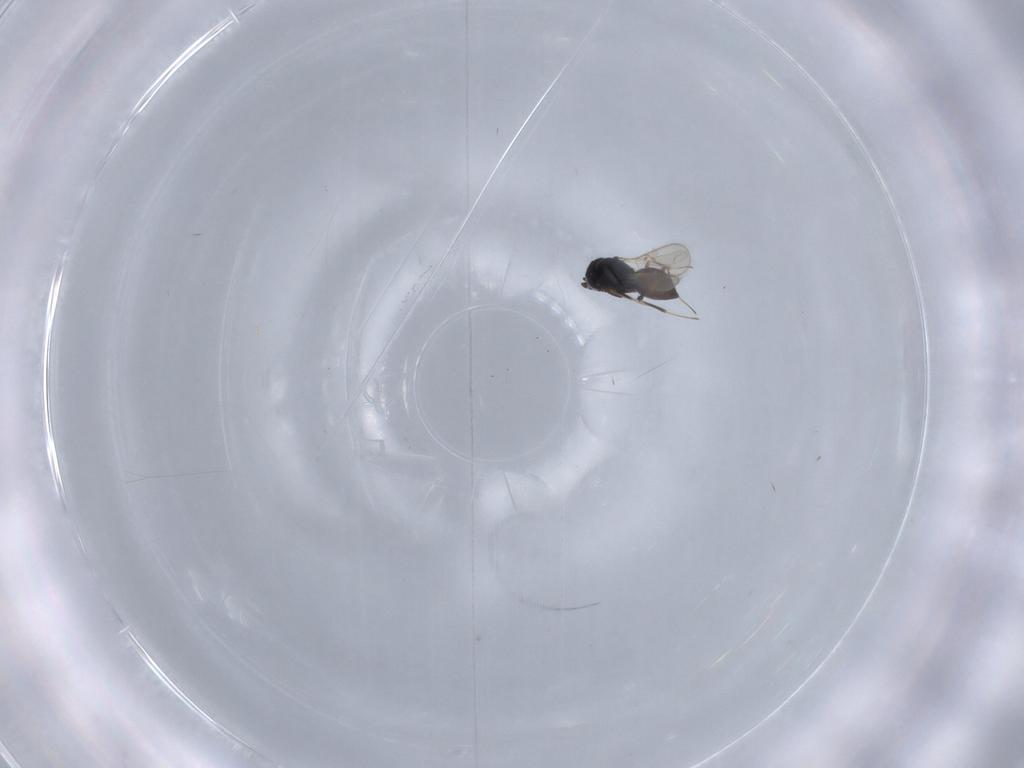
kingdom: Animalia
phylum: Arthropoda
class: Insecta
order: Hymenoptera
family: Scelionidae
